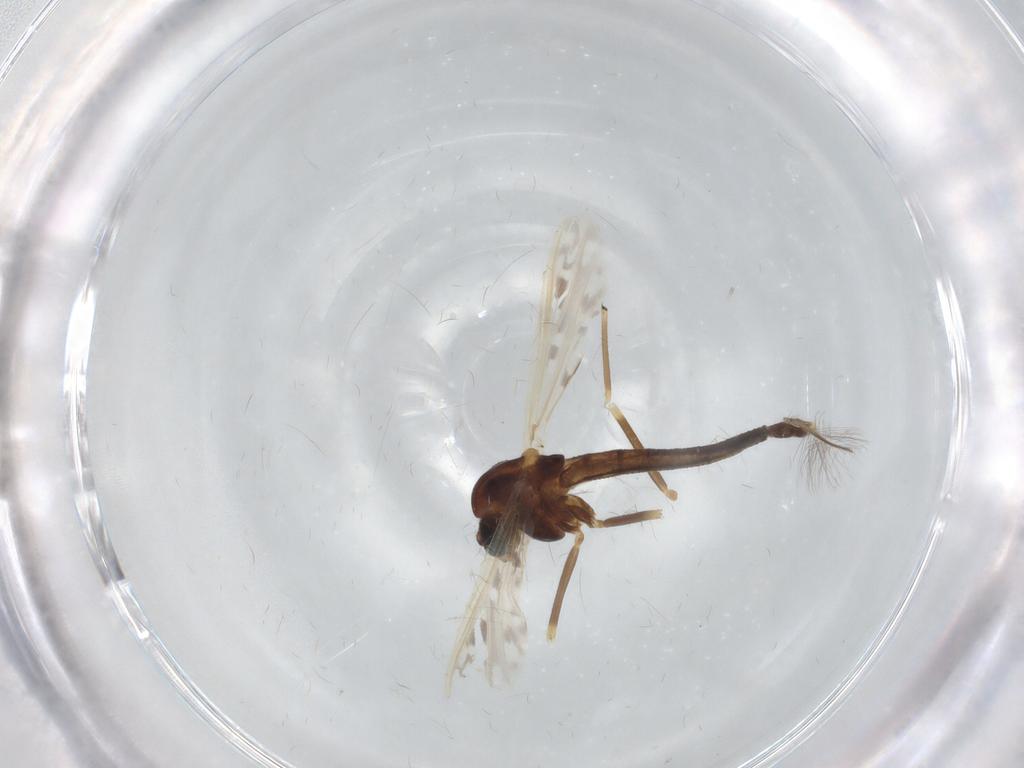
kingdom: Animalia
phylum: Arthropoda
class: Insecta
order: Diptera
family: Chironomidae
